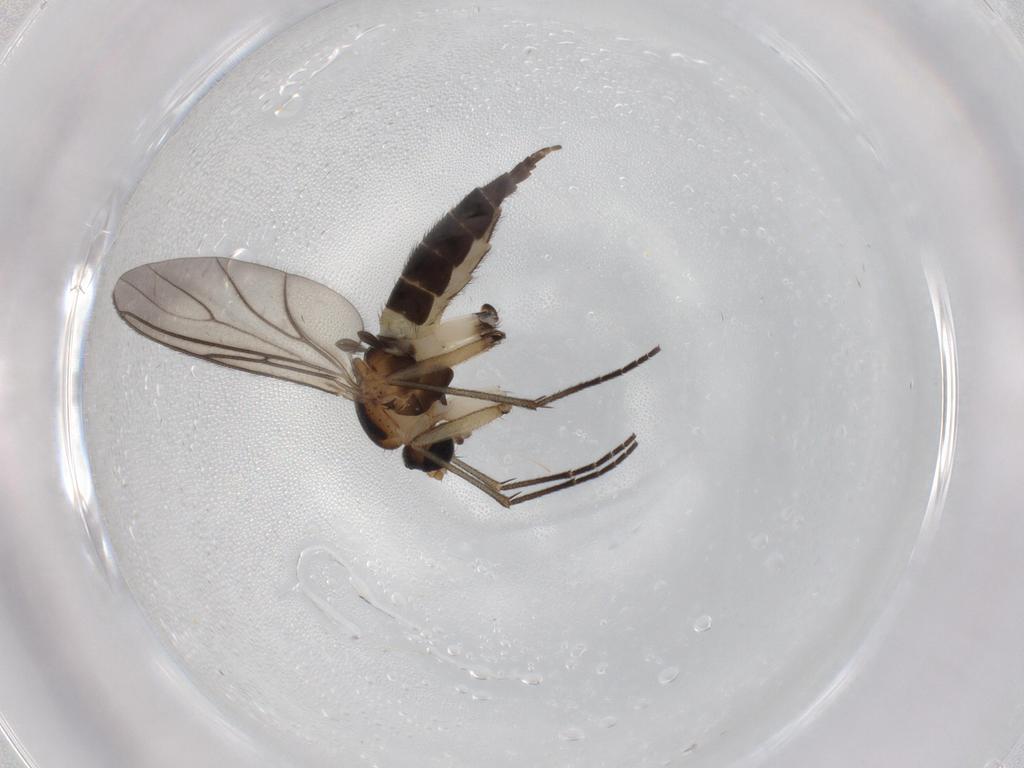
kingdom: Animalia
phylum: Arthropoda
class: Insecta
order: Diptera
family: Sciaridae
